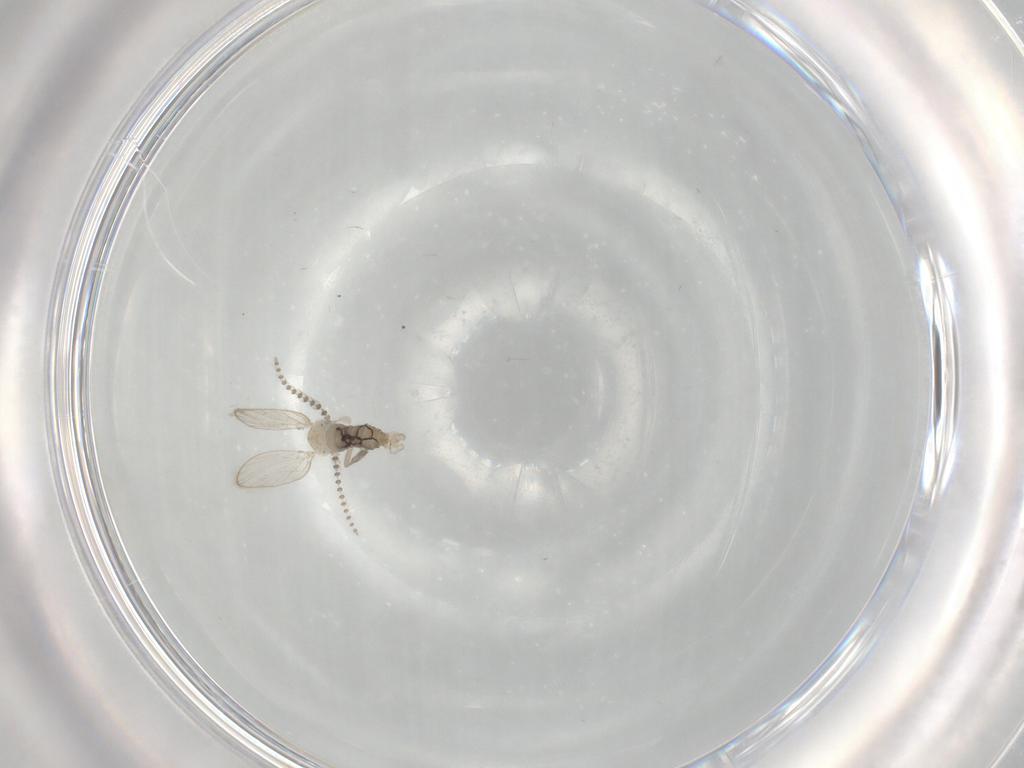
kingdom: Animalia
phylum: Arthropoda
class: Insecta
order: Diptera
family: Psychodidae
